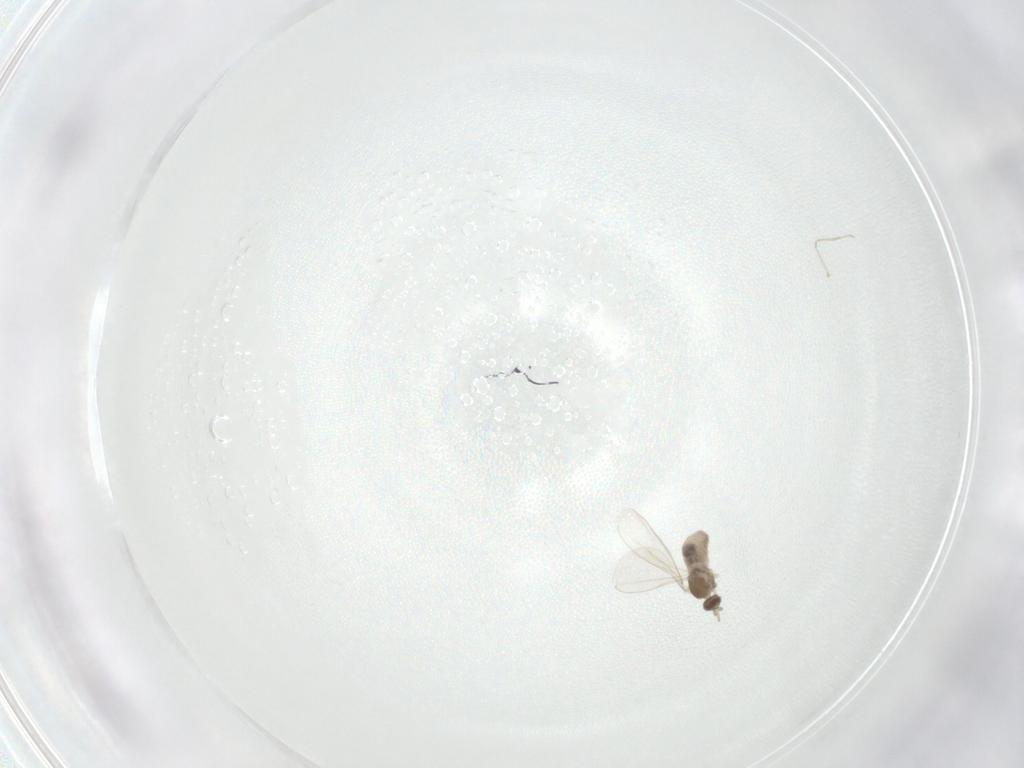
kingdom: Animalia
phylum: Arthropoda
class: Insecta
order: Diptera
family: Cecidomyiidae
